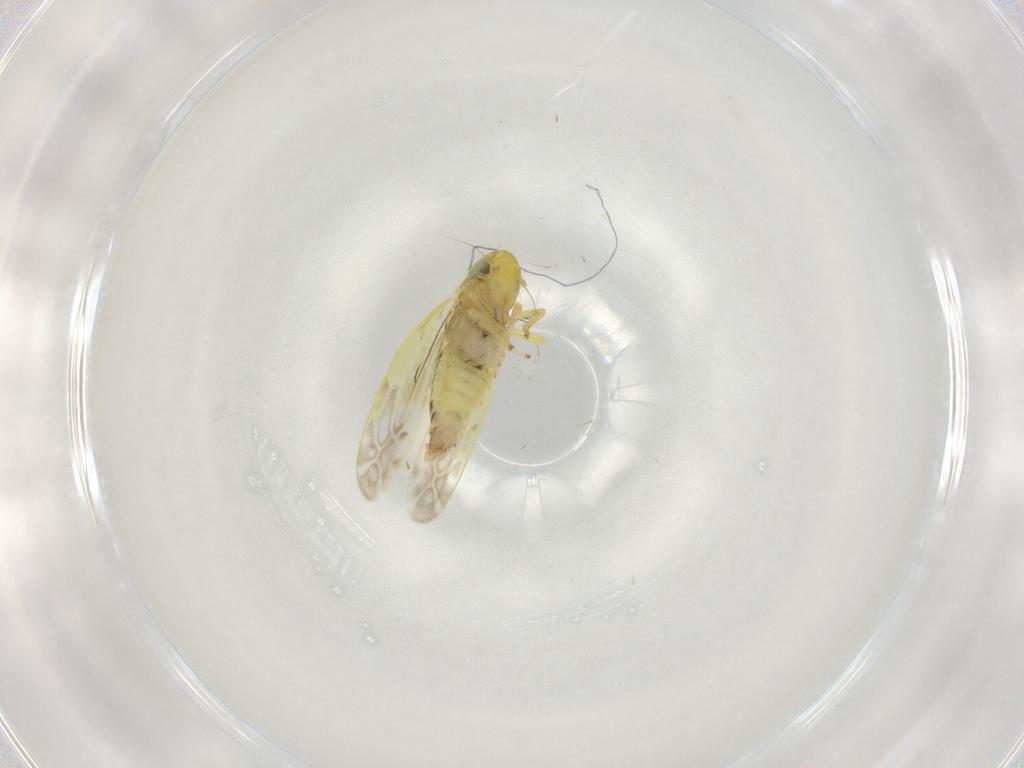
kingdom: Animalia
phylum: Arthropoda
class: Insecta
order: Hemiptera
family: Cicadellidae
